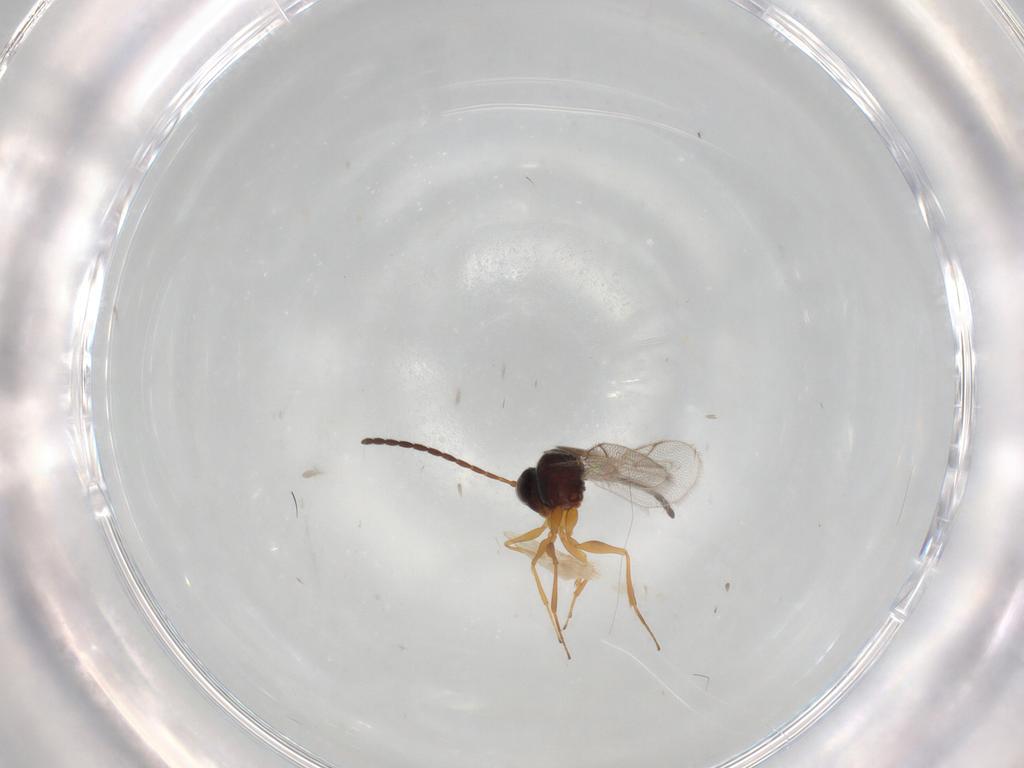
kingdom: Animalia
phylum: Arthropoda
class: Insecta
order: Hymenoptera
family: Figitidae
